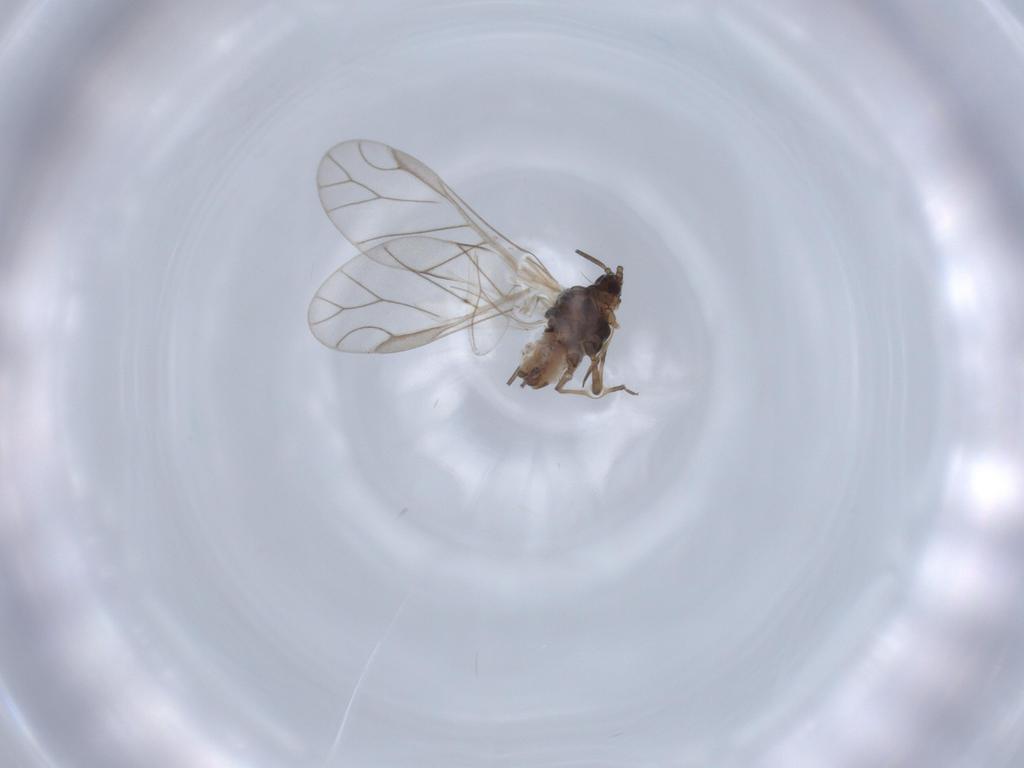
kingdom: Animalia
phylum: Arthropoda
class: Insecta
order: Hemiptera
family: Aphididae
